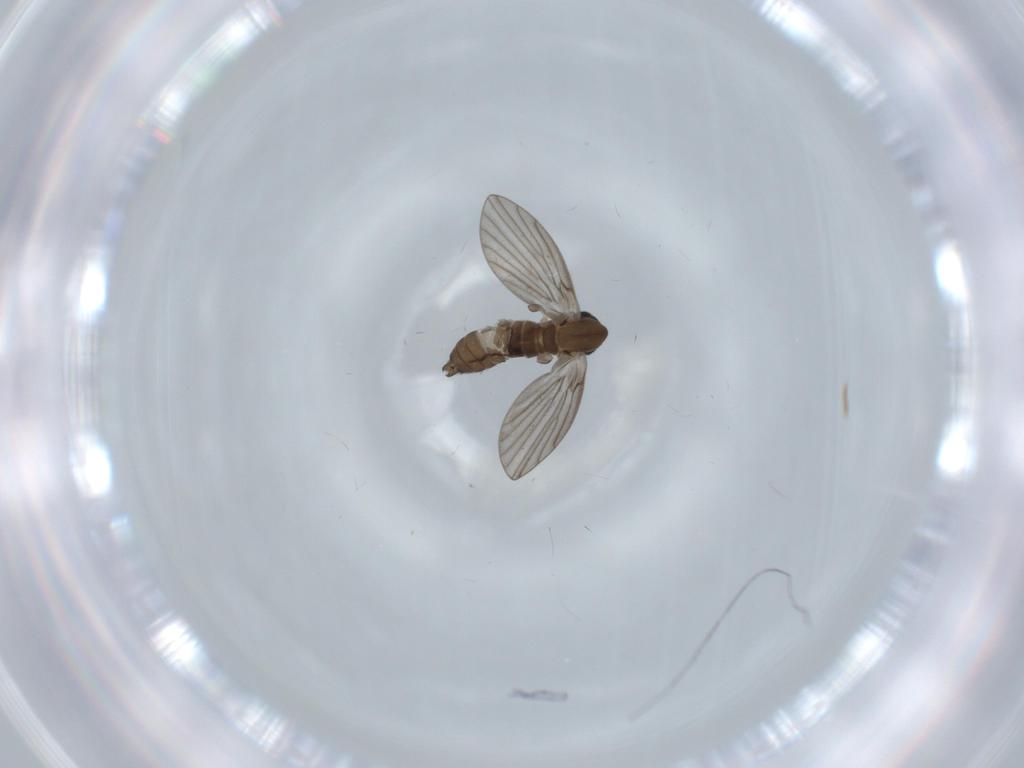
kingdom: Animalia
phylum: Arthropoda
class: Insecta
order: Diptera
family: Psychodidae
